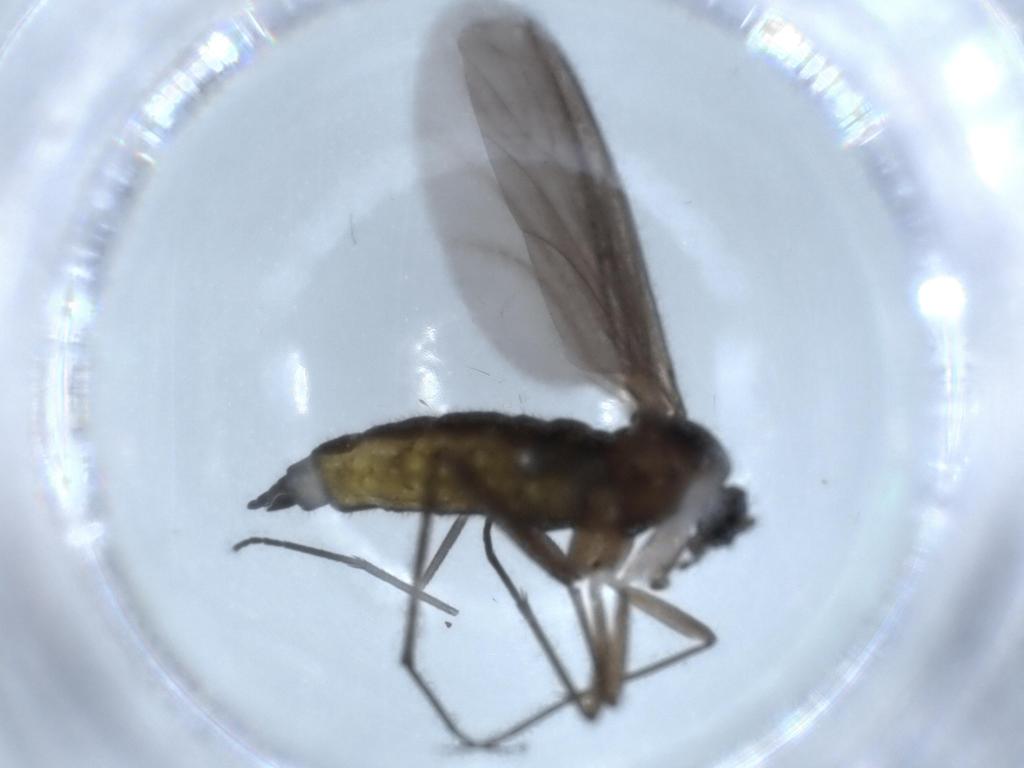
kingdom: Animalia
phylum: Arthropoda
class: Insecta
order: Diptera
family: Sciaridae
